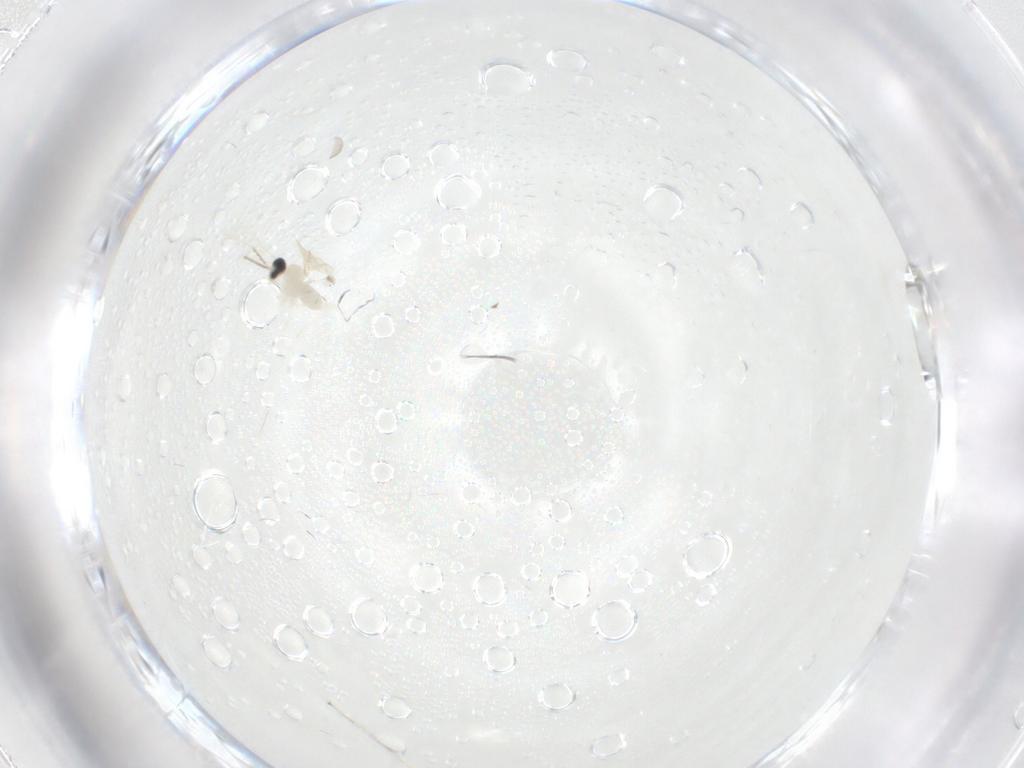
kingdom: Animalia
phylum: Arthropoda
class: Insecta
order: Diptera
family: Cecidomyiidae
